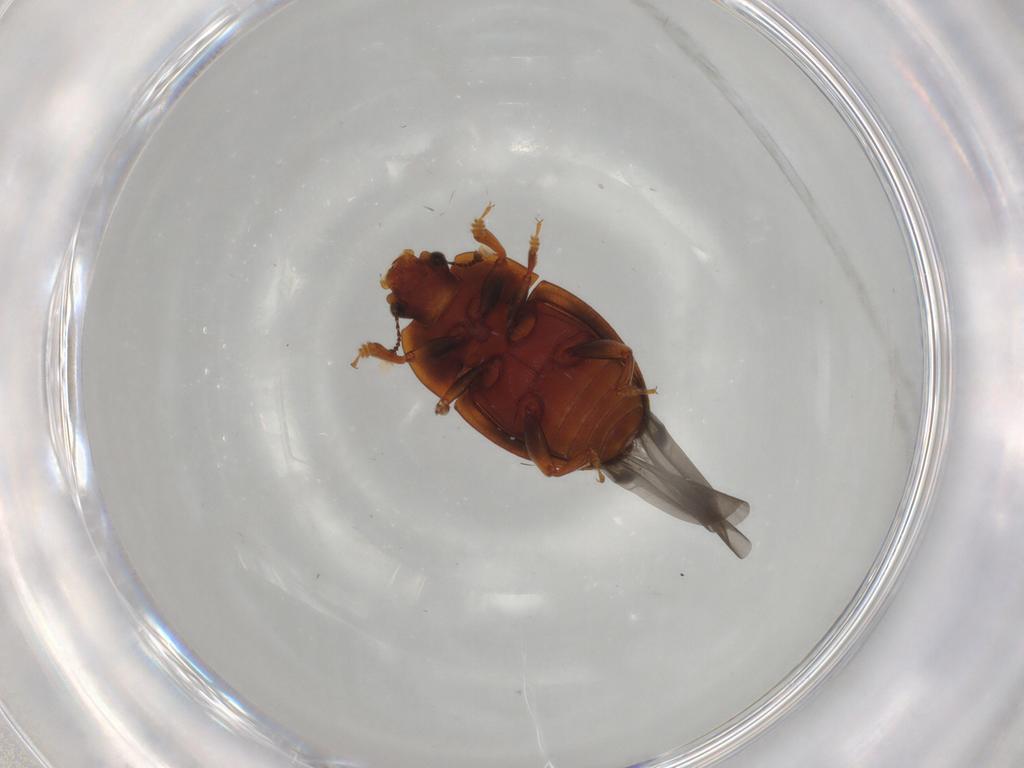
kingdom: Animalia
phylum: Arthropoda
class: Insecta
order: Coleoptera
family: Nitidulidae
